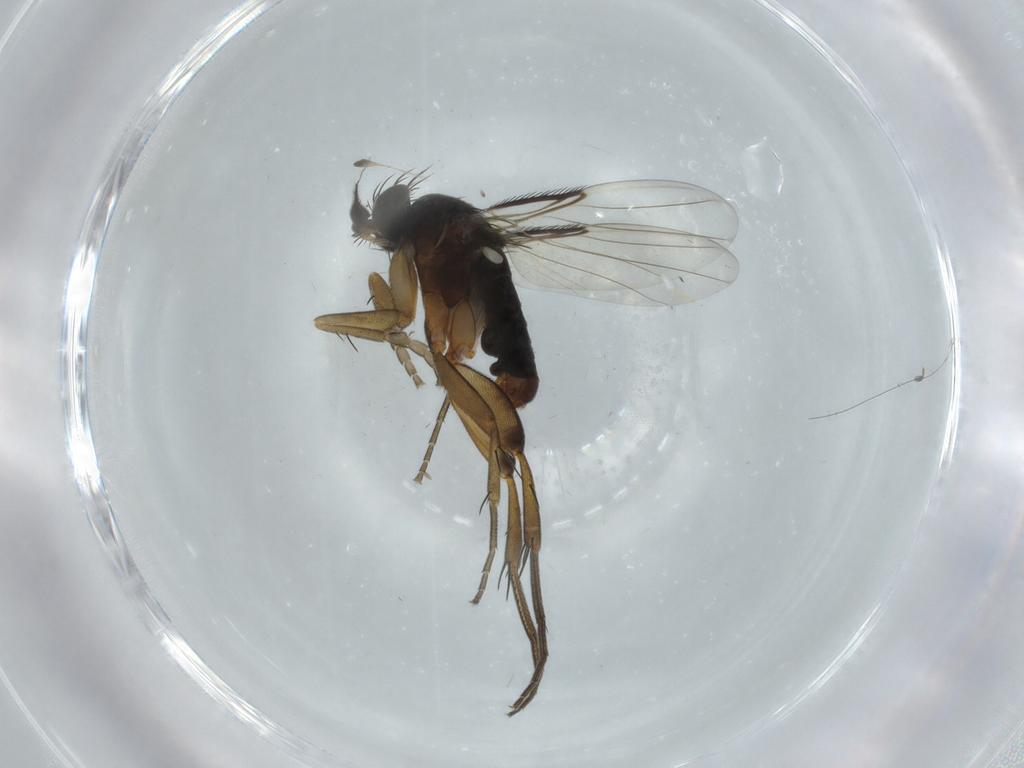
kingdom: Animalia
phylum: Arthropoda
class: Insecta
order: Diptera
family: Phoridae
